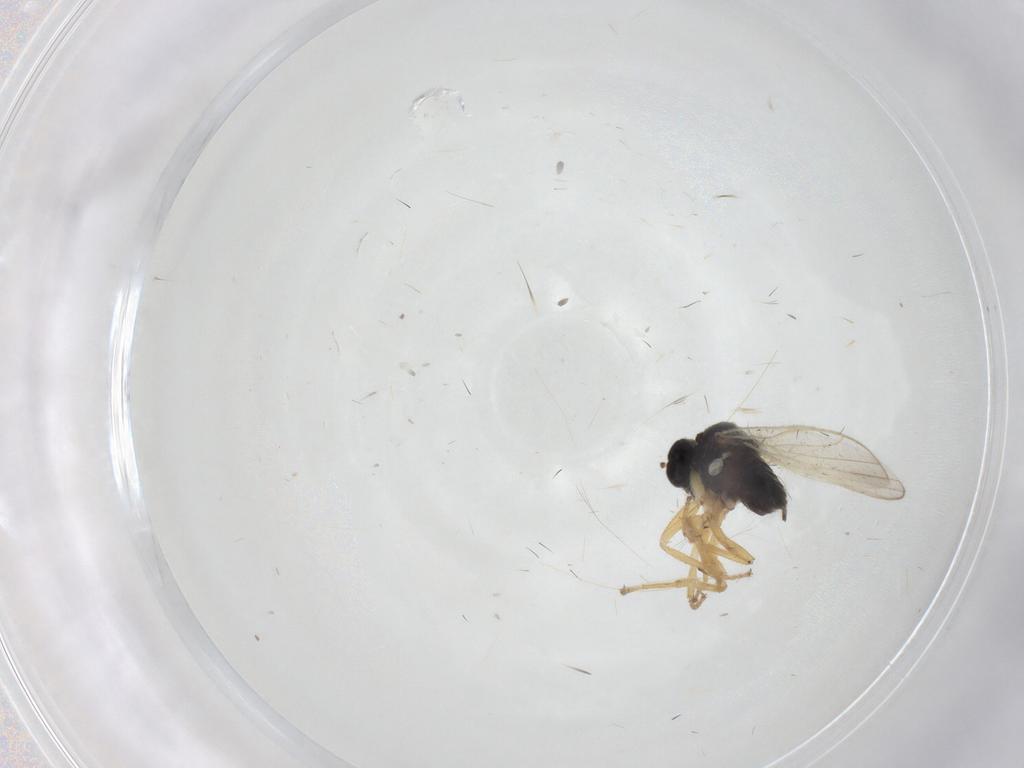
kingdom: Animalia
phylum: Arthropoda
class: Insecta
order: Diptera
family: Hybotidae
